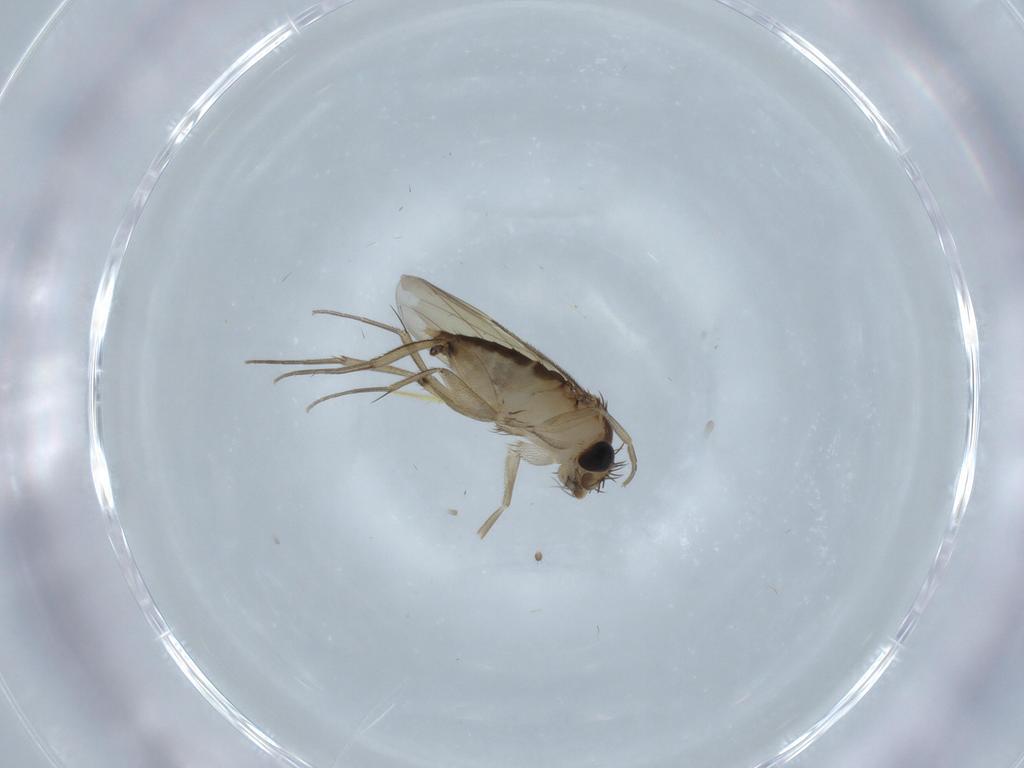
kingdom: Animalia
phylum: Arthropoda
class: Insecta
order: Diptera
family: Phoridae
